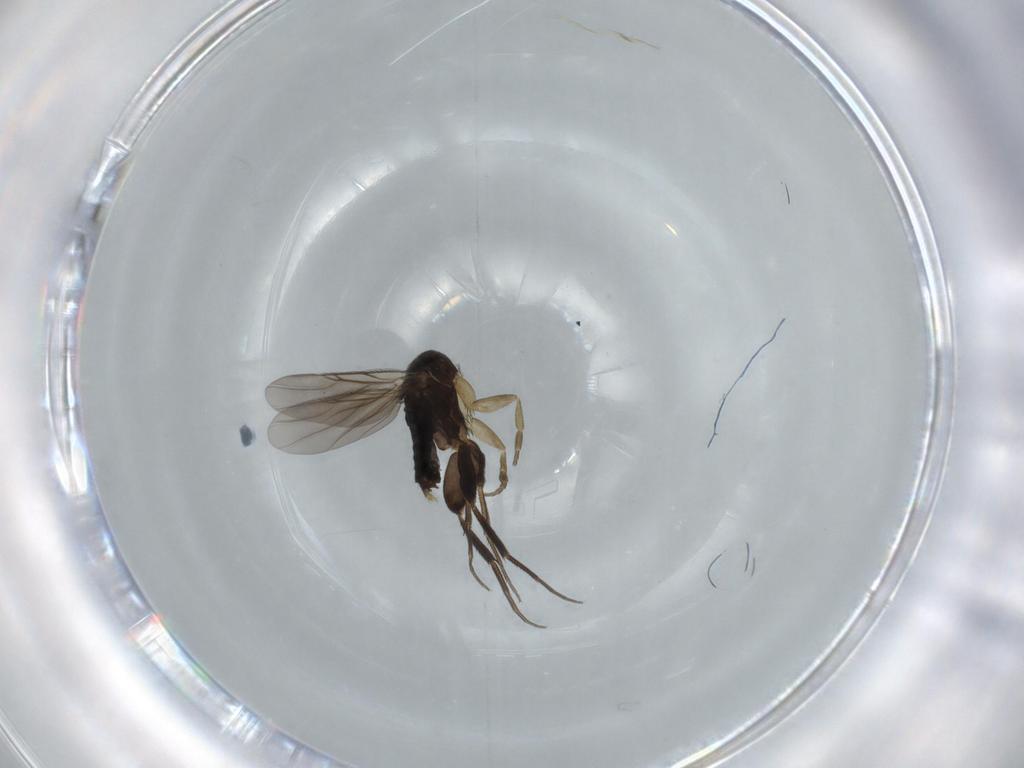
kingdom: Animalia
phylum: Arthropoda
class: Insecta
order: Diptera
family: Phoridae
